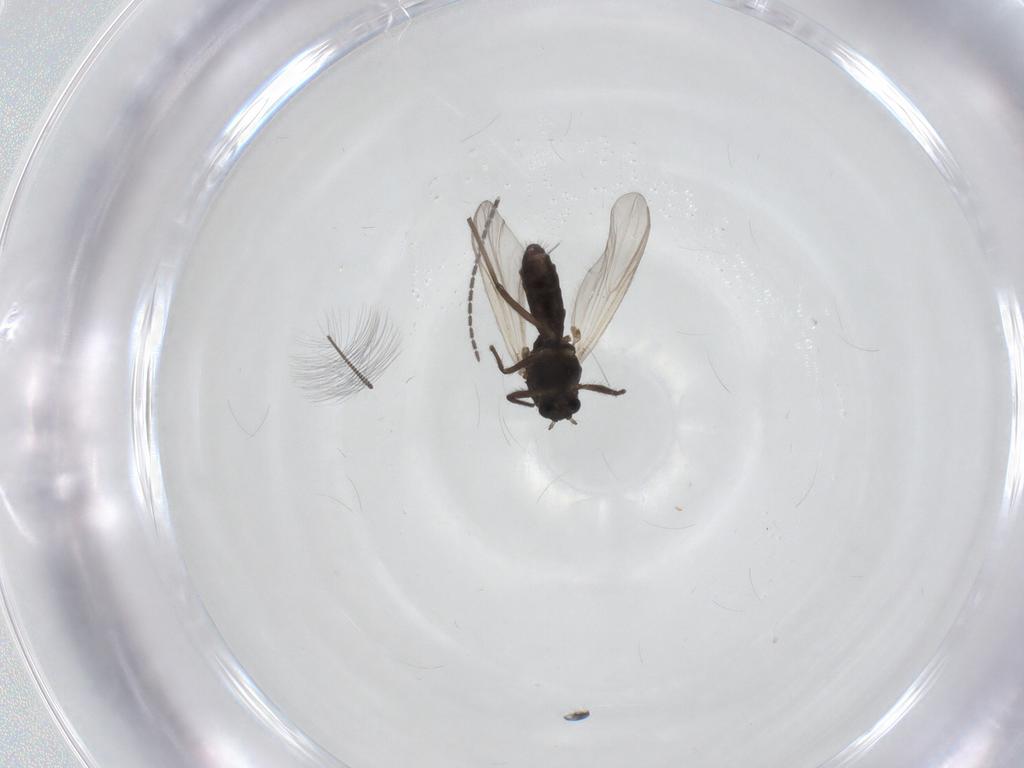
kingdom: Animalia
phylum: Arthropoda
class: Insecta
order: Diptera
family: Chironomidae
